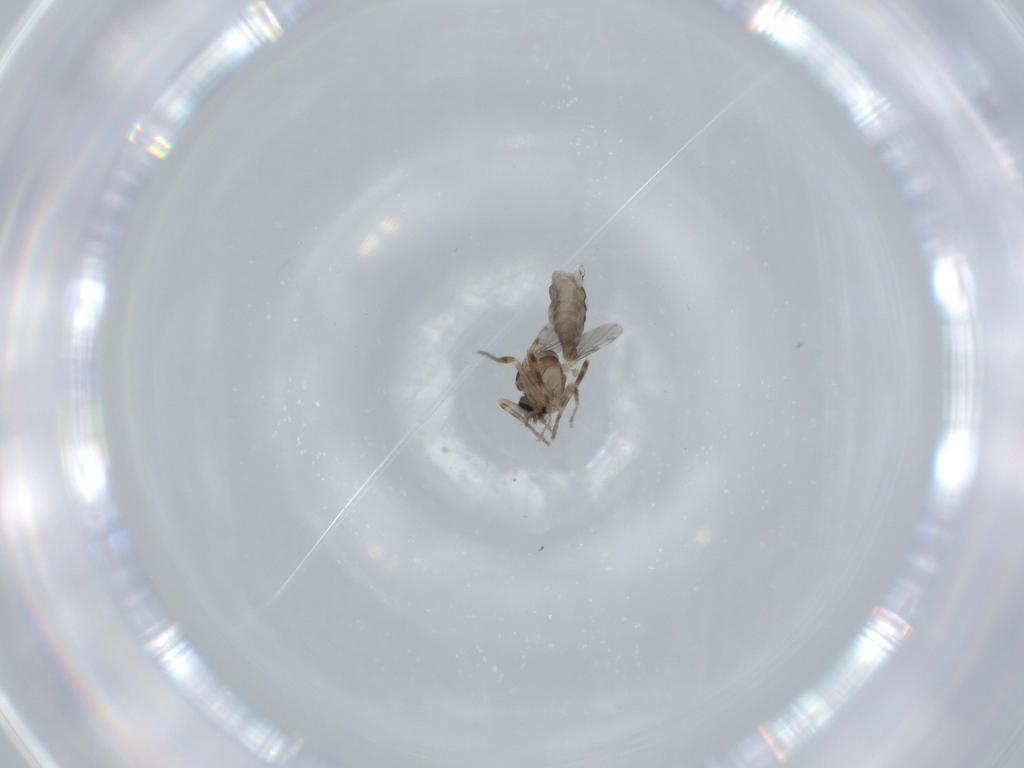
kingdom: Animalia
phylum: Arthropoda
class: Insecta
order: Diptera
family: Ceratopogonidae
